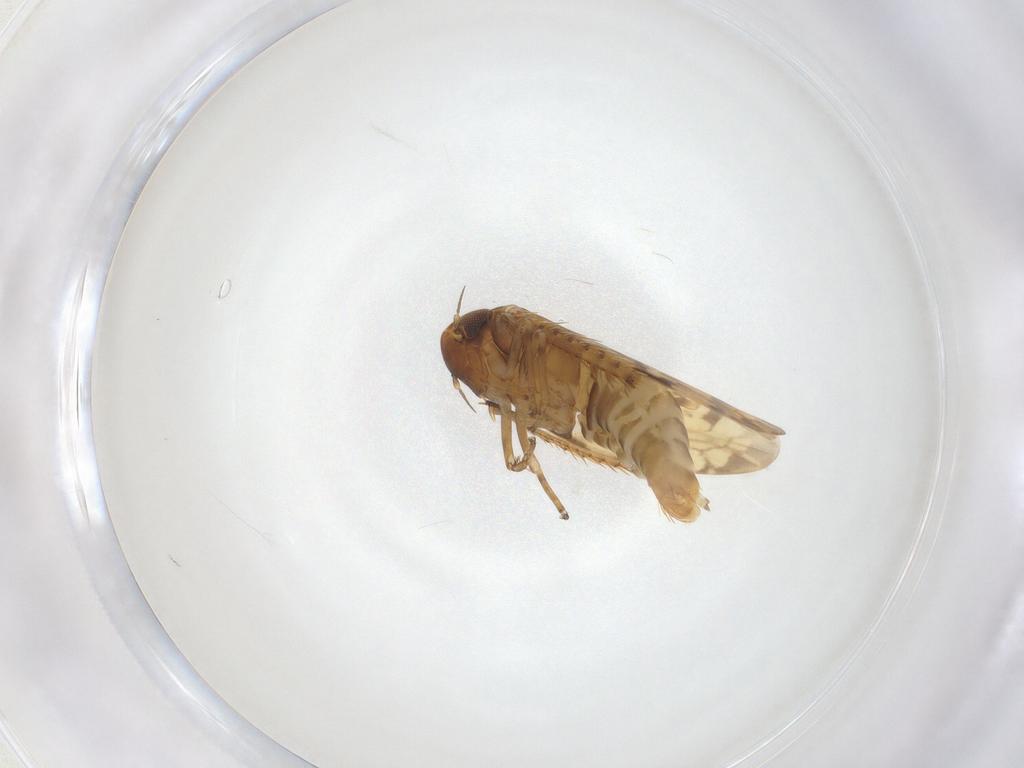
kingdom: Animalia
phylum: Arthropoda
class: Insecta
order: Hemiptera
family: Cicadellidae
